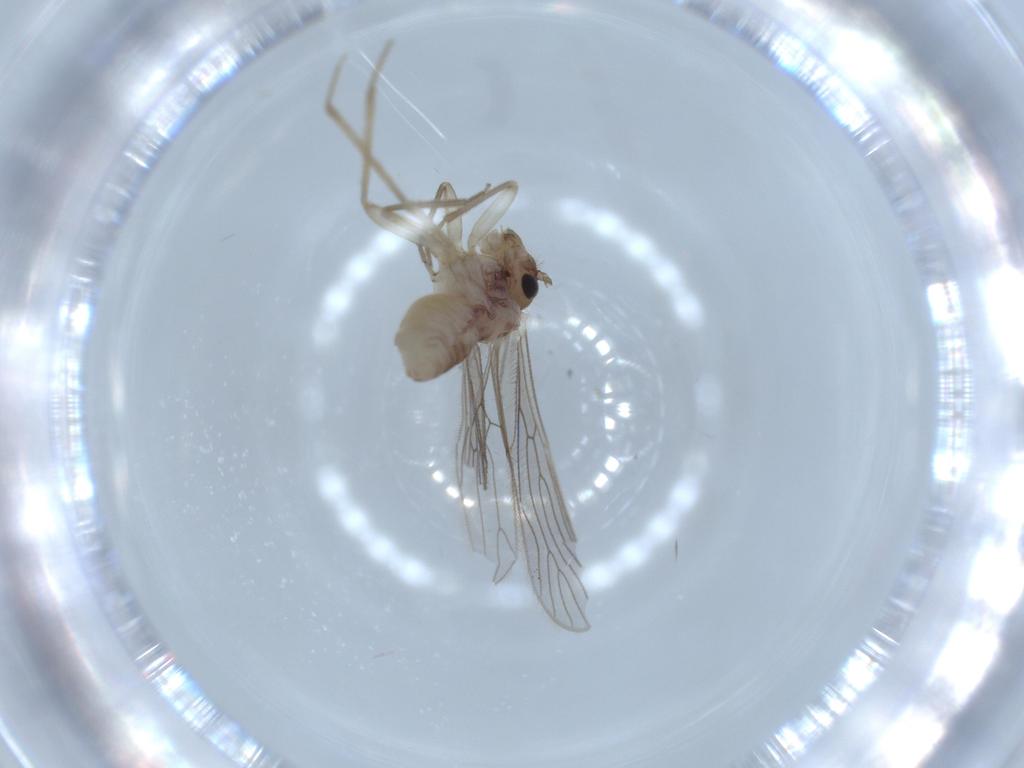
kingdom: Animalia
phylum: Arthropoda
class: Insecta
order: Psocodea
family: Cladiopsocidae
